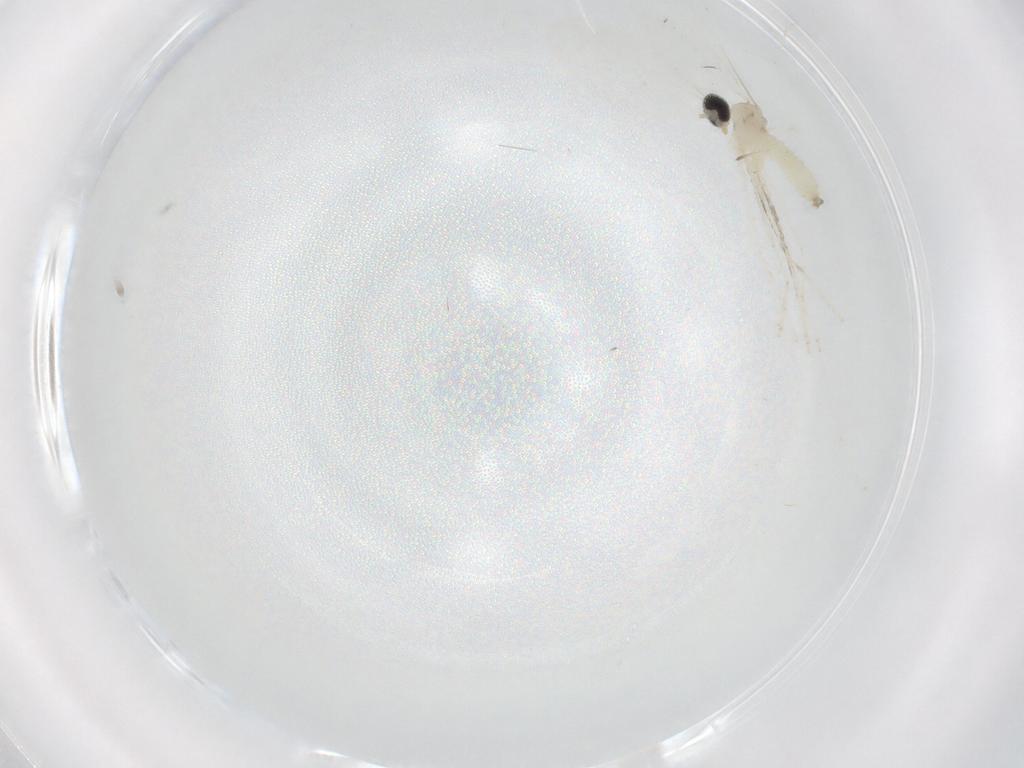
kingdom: Animalia
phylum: Arthropoda
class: Insecta
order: Diptera
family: Cecidomyiidae
